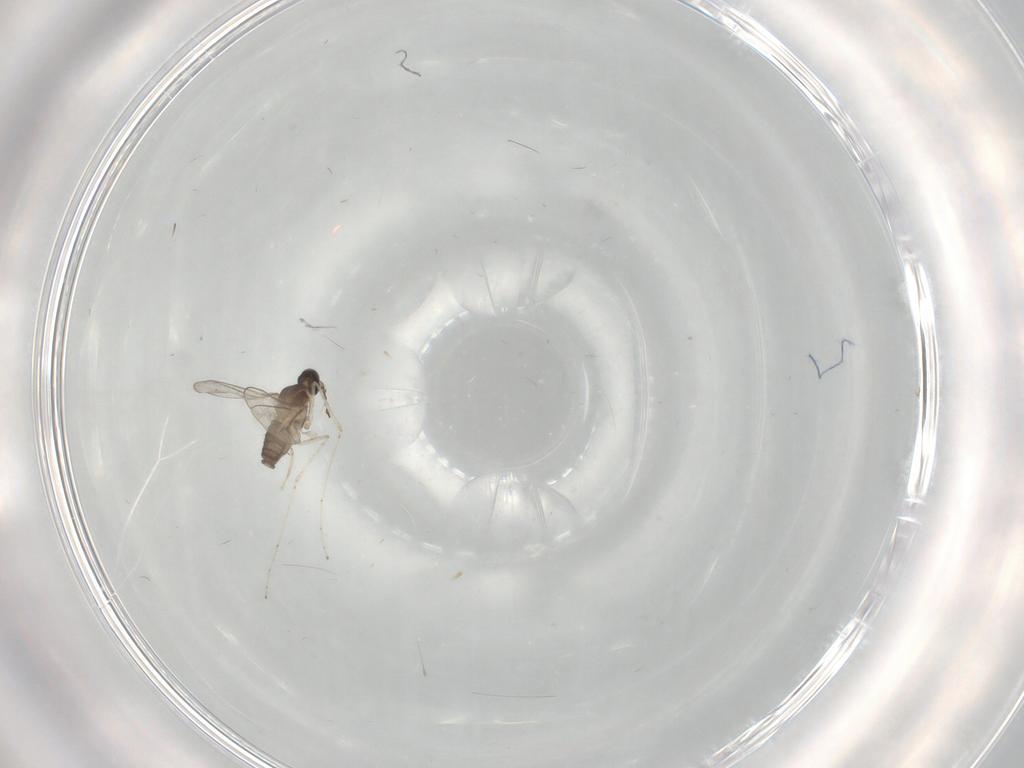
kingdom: Animalia
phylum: Arthropoda
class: Insecta
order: Diptera
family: Cecidomyiidae
